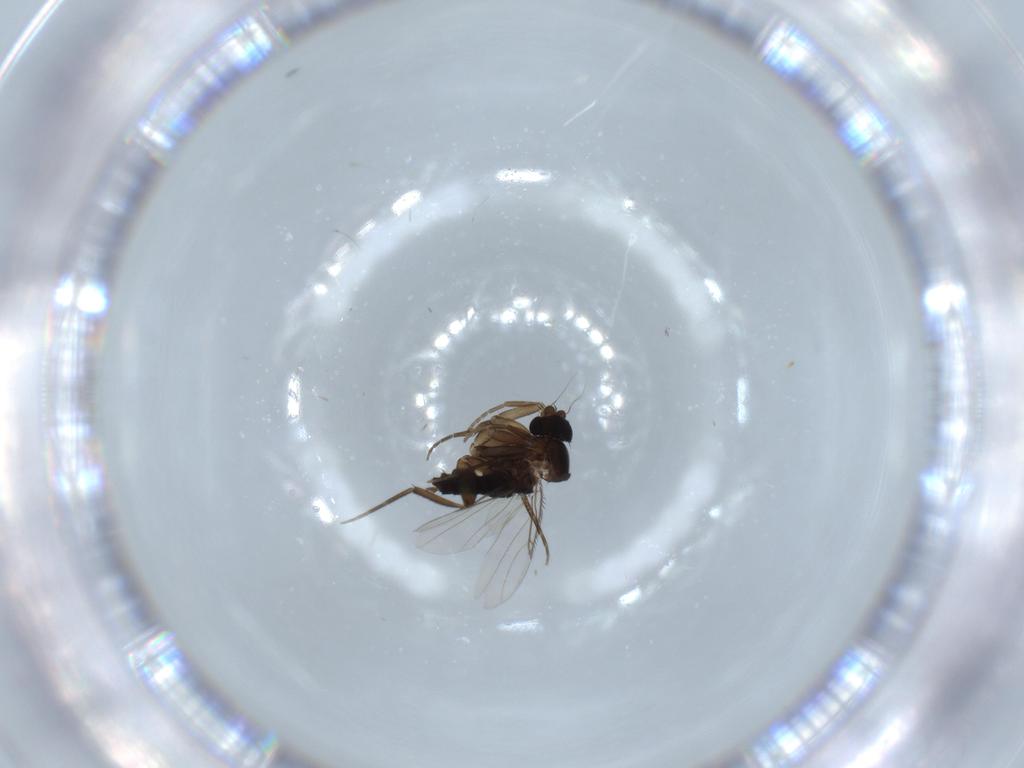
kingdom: Animalia
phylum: Arthropoda
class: Insecta
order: Diptera
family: Phoridae
